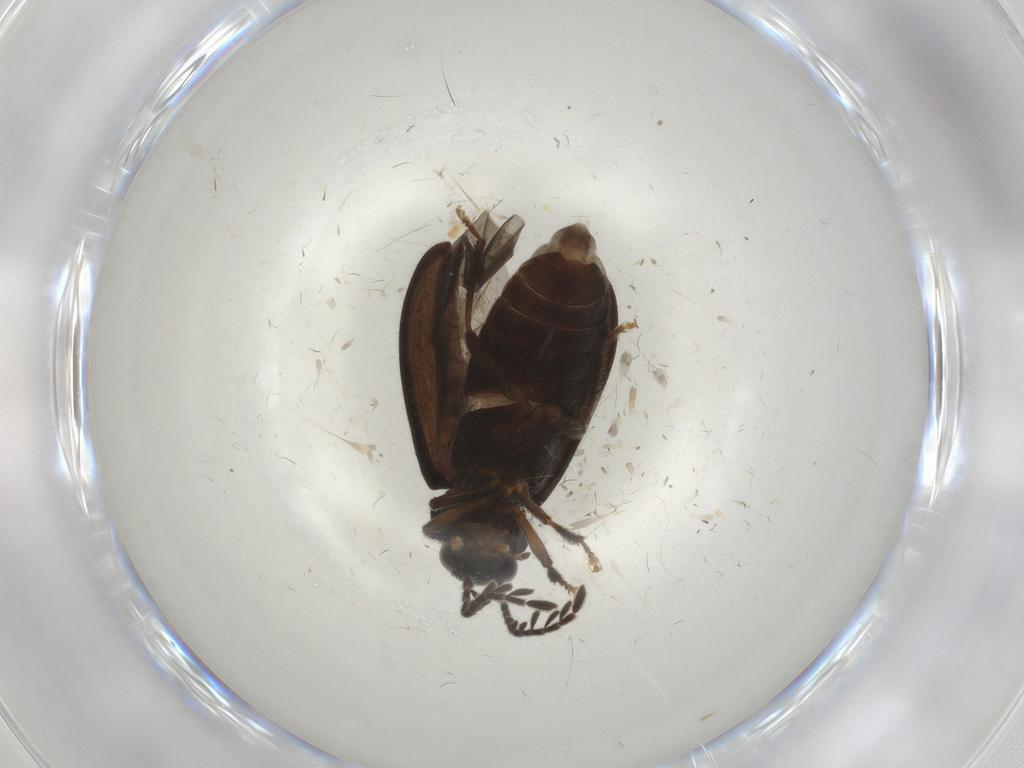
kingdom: Animalia
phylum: Arthropoda
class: Insecta
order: Coleoptera
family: Ptilodactylidae
